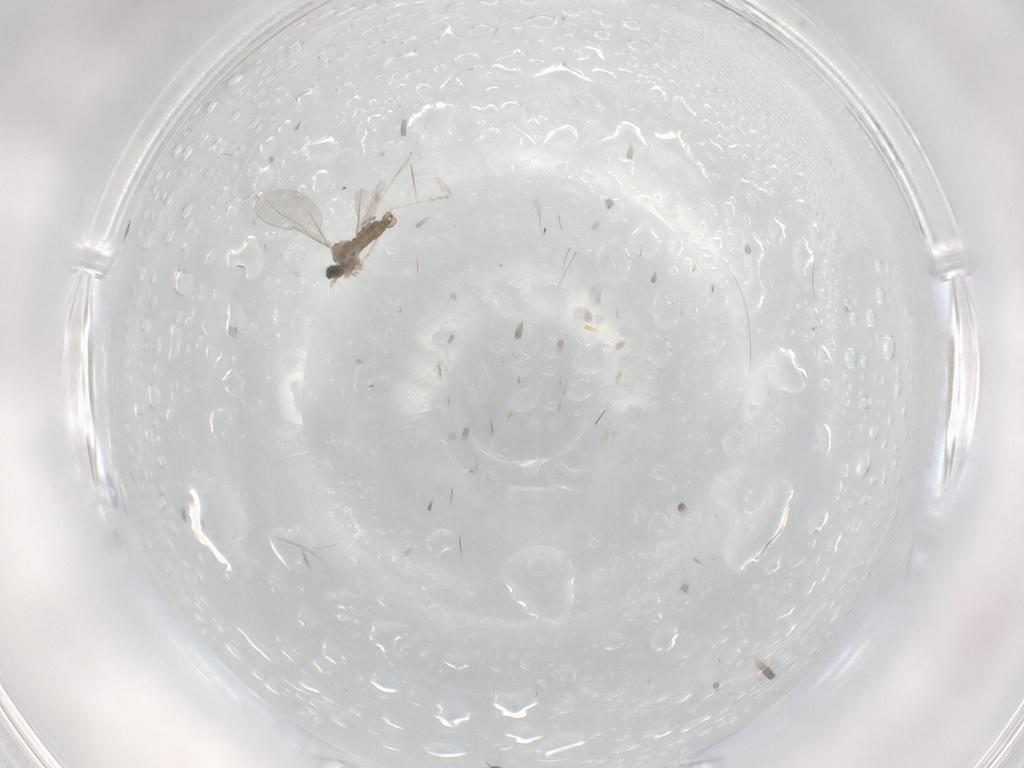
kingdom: Animalia
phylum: Arthropoda
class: Insecta
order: Diptera
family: Cecidomyiidae
